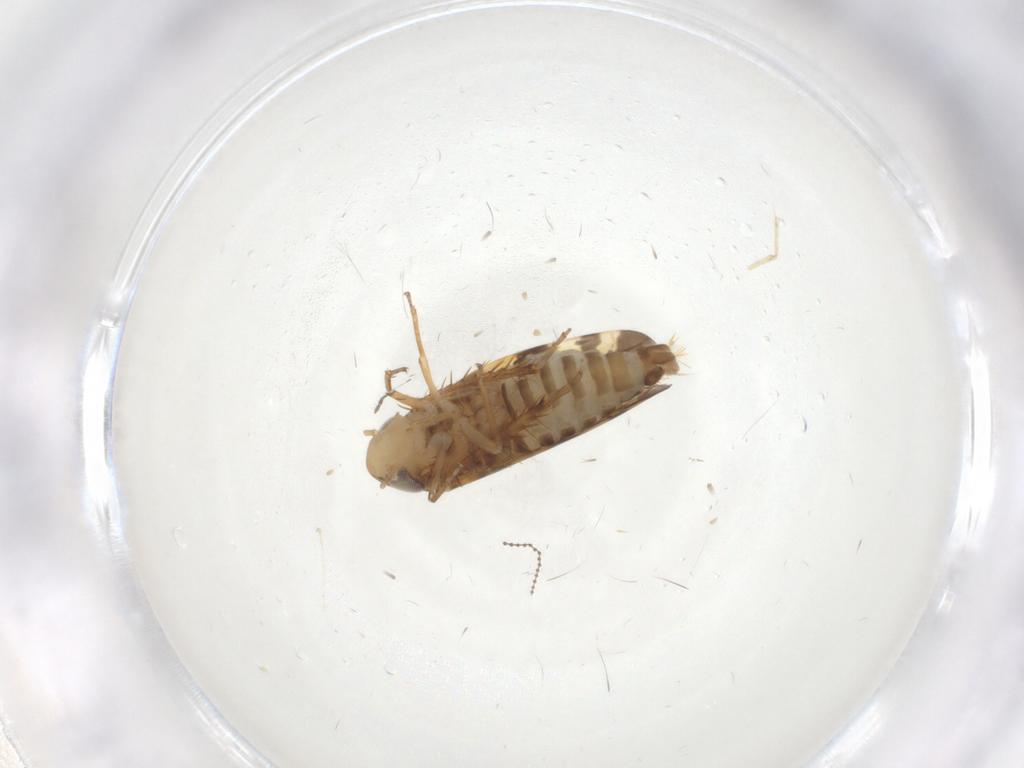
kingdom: Animalia
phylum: Arthropoda
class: Insecta
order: Hemiptera
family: Cicadellidae
